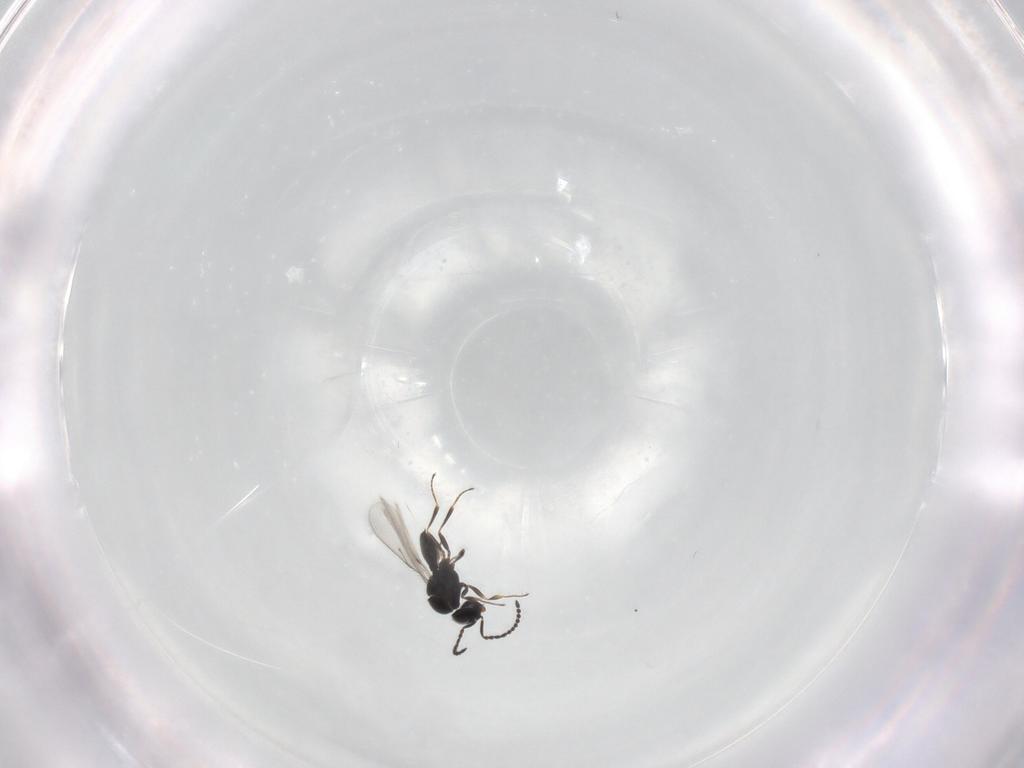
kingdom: Animalia
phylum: Arthropoda
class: Insecta
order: Hymenoptera
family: Scelionidae
